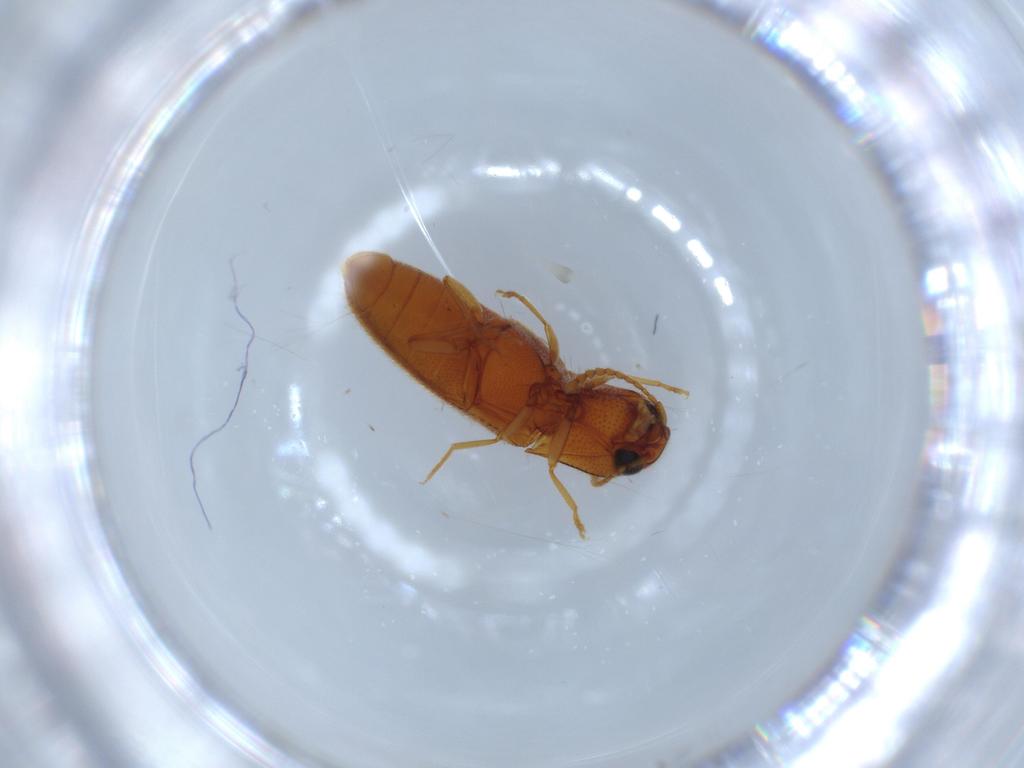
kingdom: Animalia
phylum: Arthropoda
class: Insecta
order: Coleoptera
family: Elateridae
